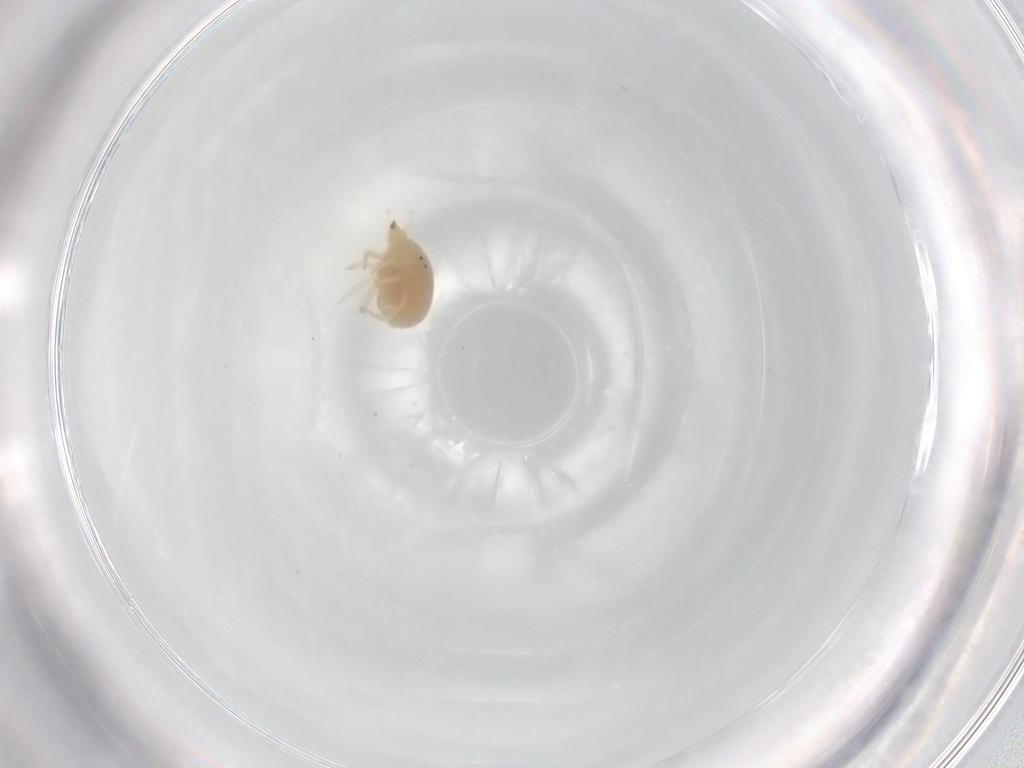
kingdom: Animalia
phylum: Arthropoda
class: Arachnida
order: Trombidiformes
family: Bdellidae
